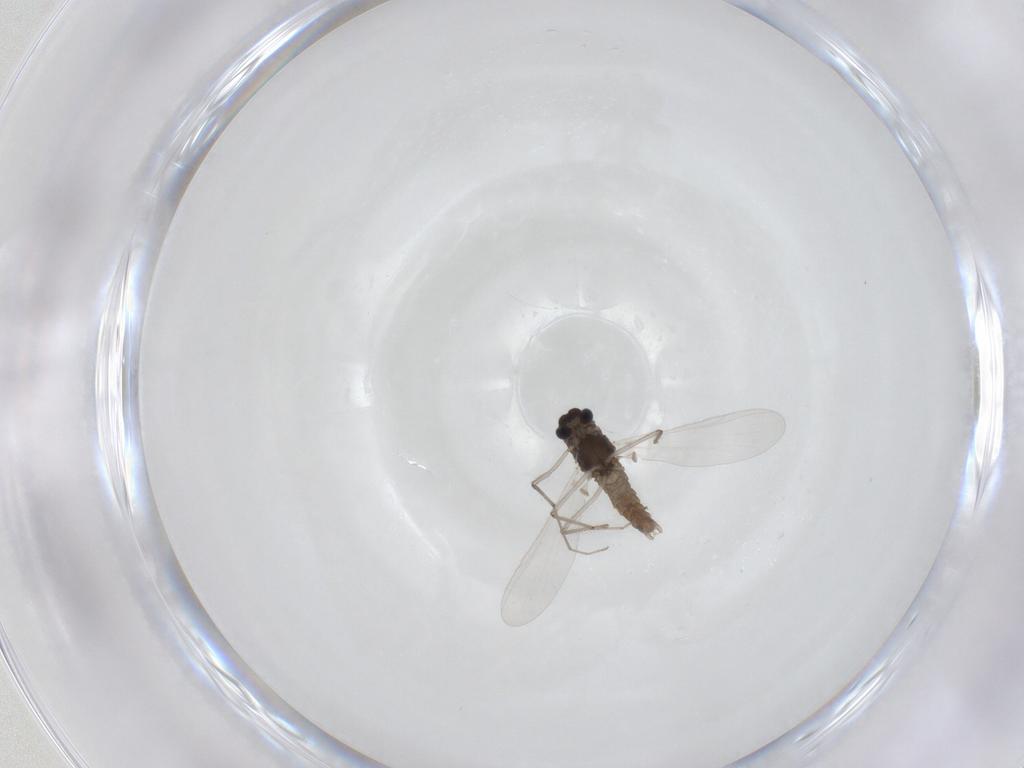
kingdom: Animalia
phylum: Arthropoda
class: Insecta
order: Diptera
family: Chironomidae
